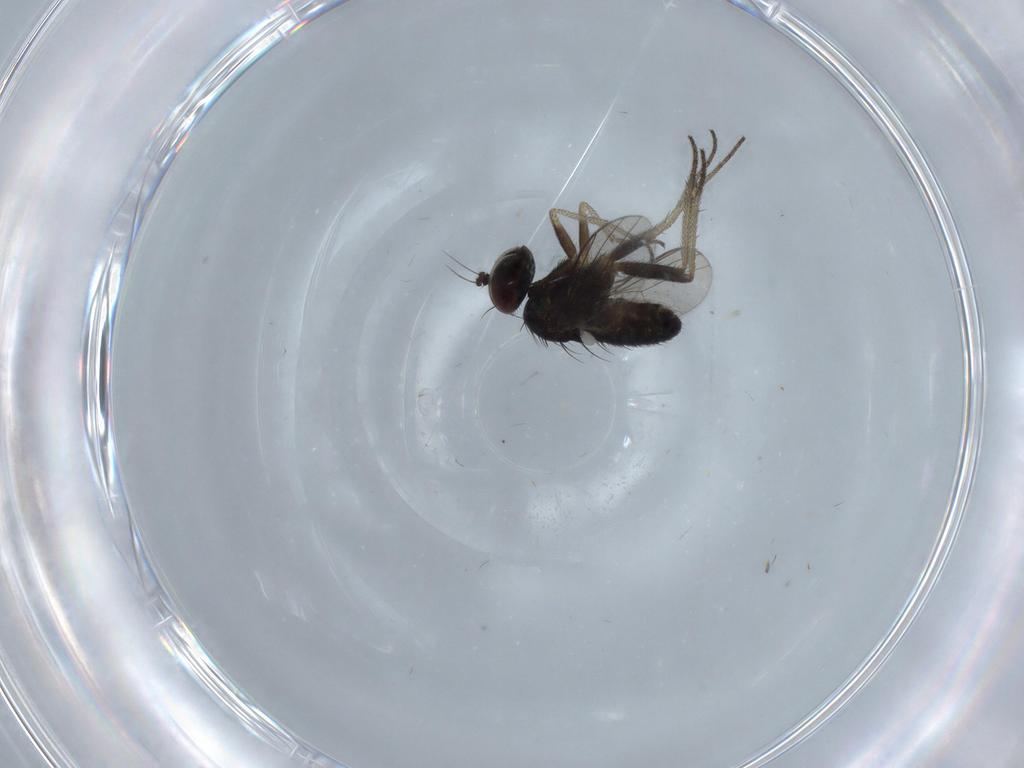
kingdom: Animalia
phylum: Arthropoda
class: Insecta
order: Diptera
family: Dolichopodidae
